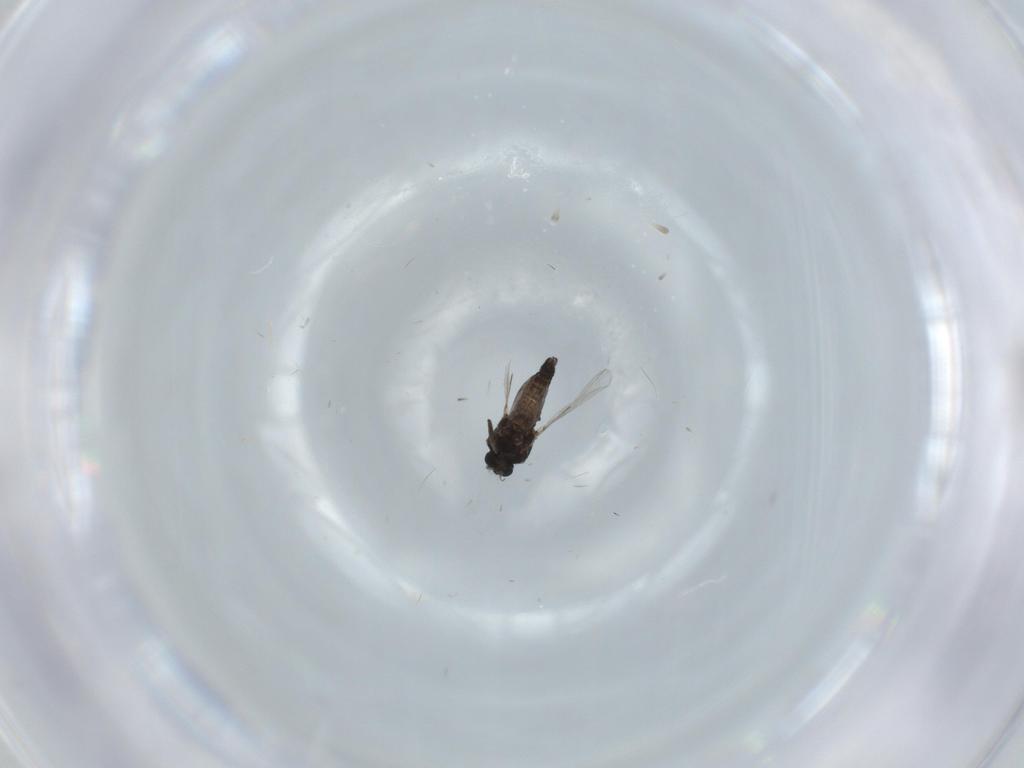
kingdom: Animalia
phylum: Arthropoda
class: Insecta
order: Diptera
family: Ceratopogonidae
